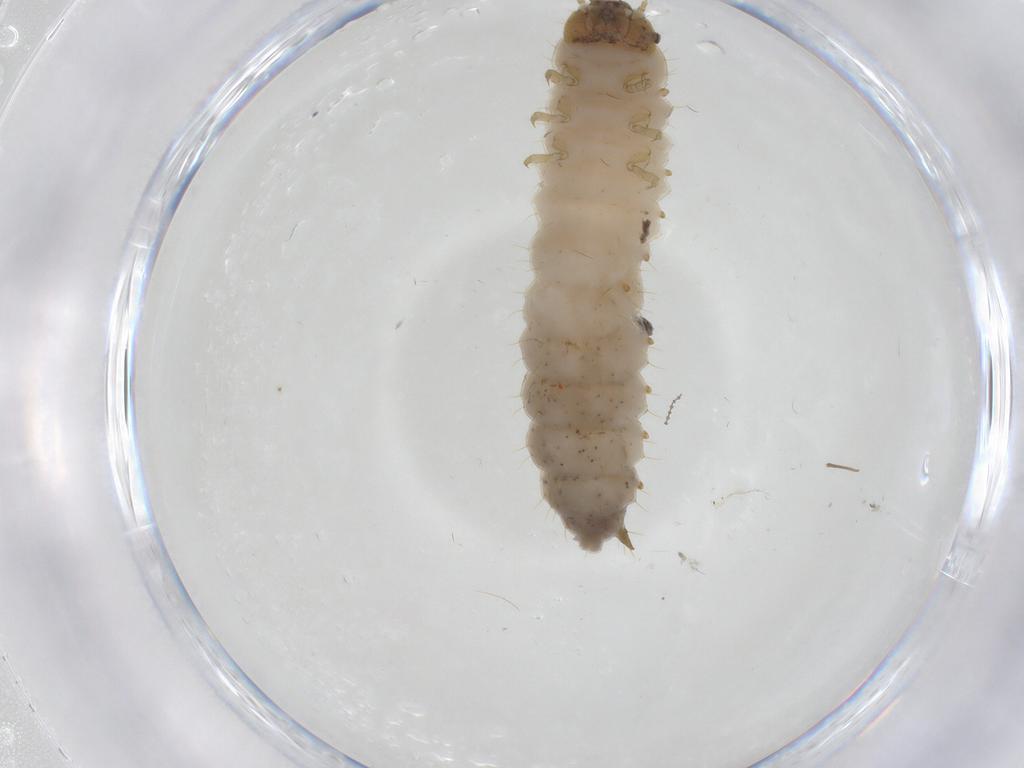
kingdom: Animalia
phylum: Arthropoda
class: Insecta
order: Coleoptera
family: Nitidulidae
